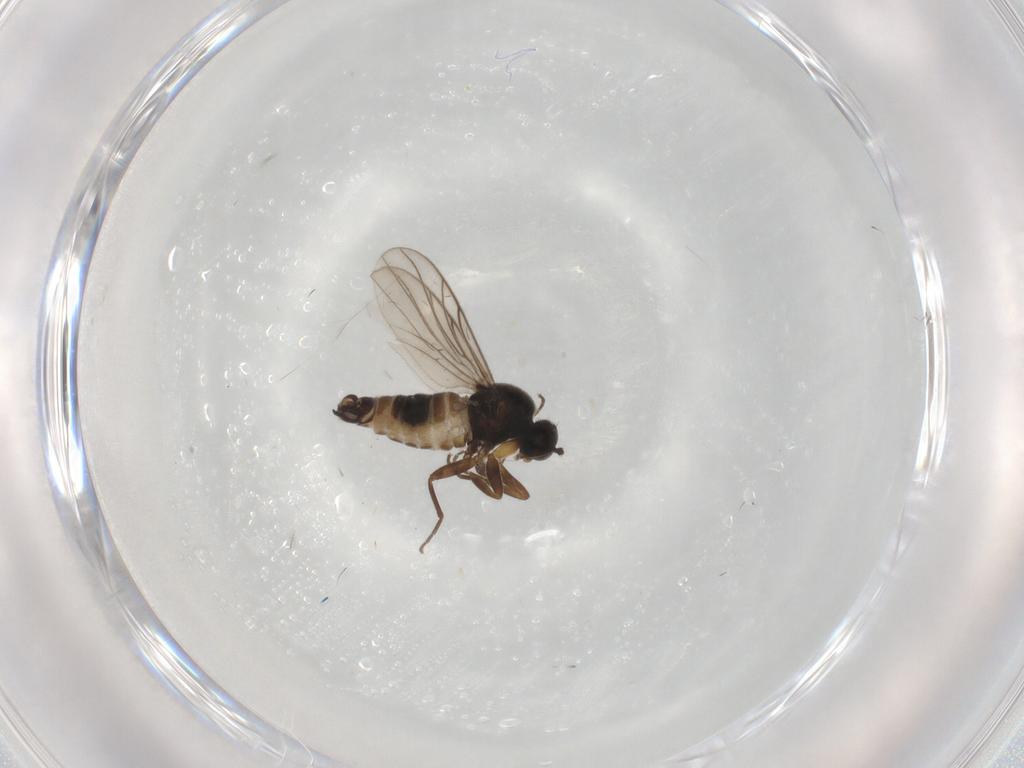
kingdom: Animalia
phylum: Arthropoda
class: Insecta
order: Diptera
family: Hybotidae
